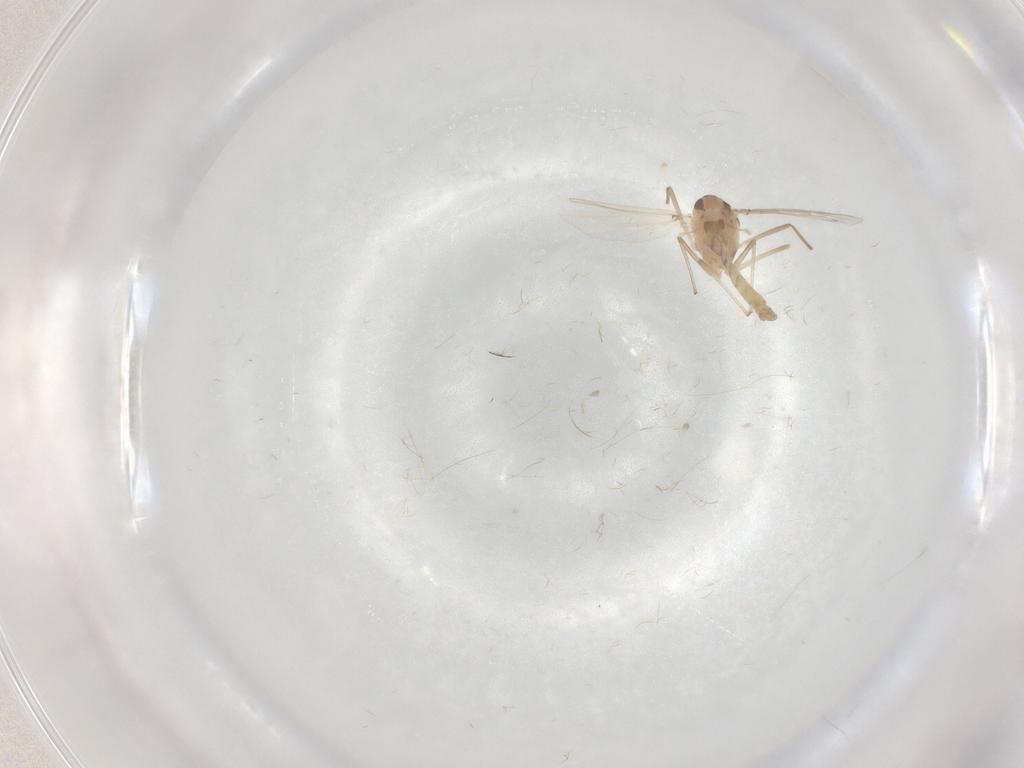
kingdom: Animalia
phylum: Arthropoda
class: Insecta
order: Diptera
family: Chironomidae
